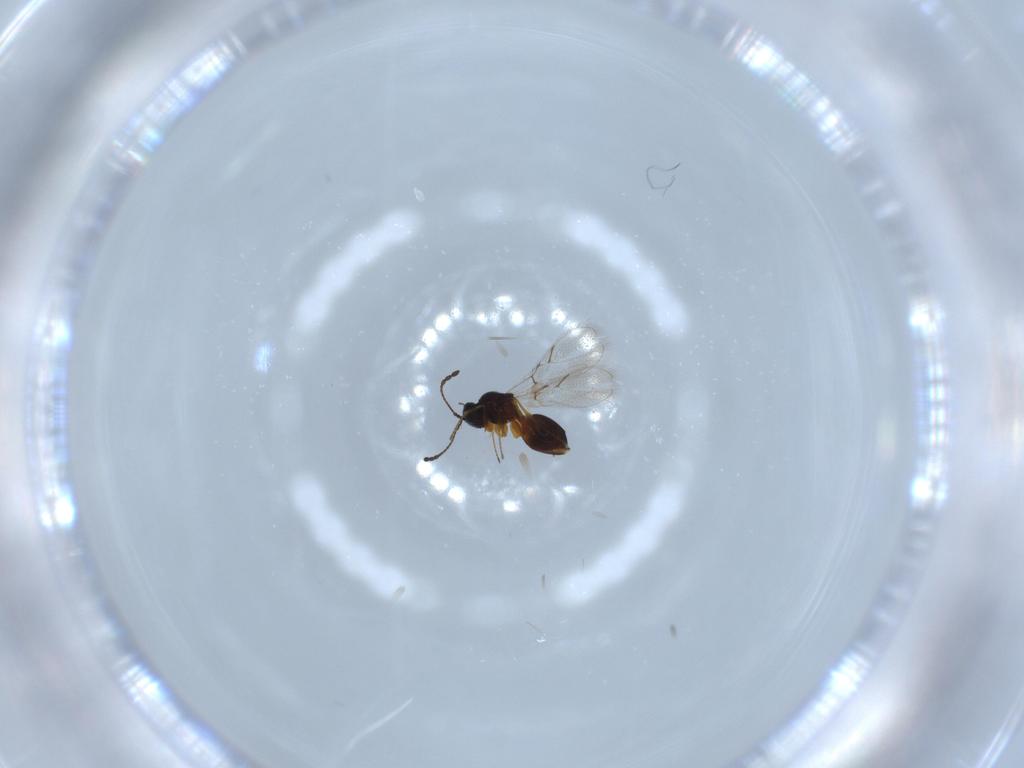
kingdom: Animalia
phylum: Arthropoda
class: Insecta
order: Hymenoptera
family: Figitidae
